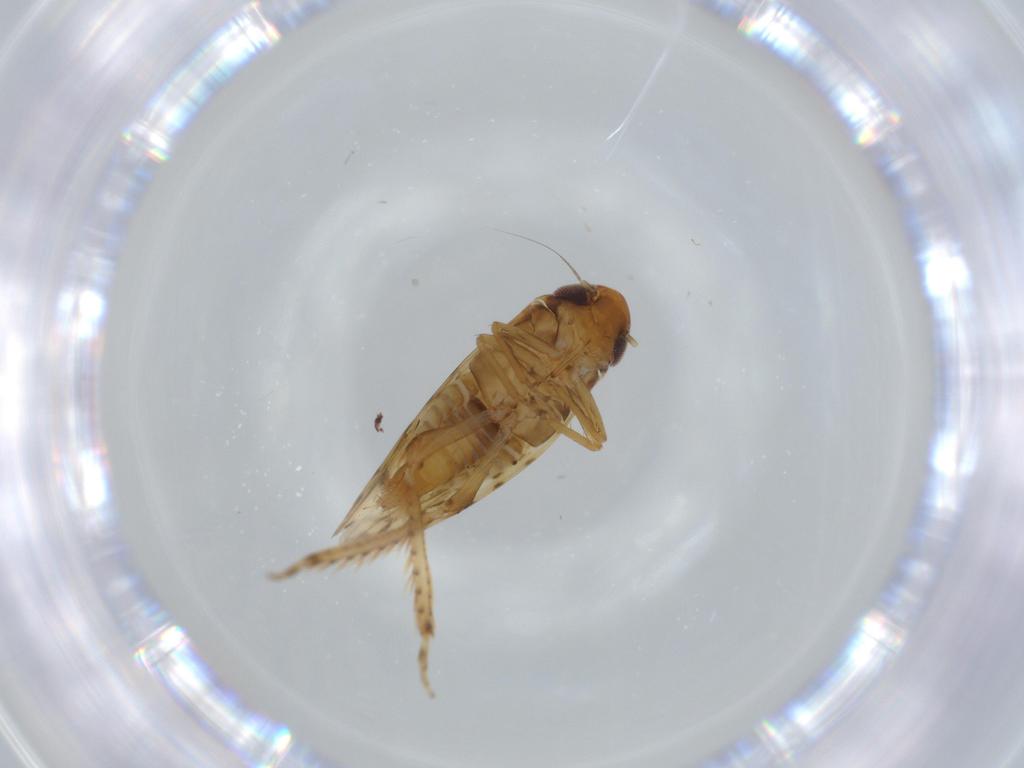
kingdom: Animalia
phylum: Arthropoda
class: Insecta
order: Hemiptera
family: Cicadellidae
